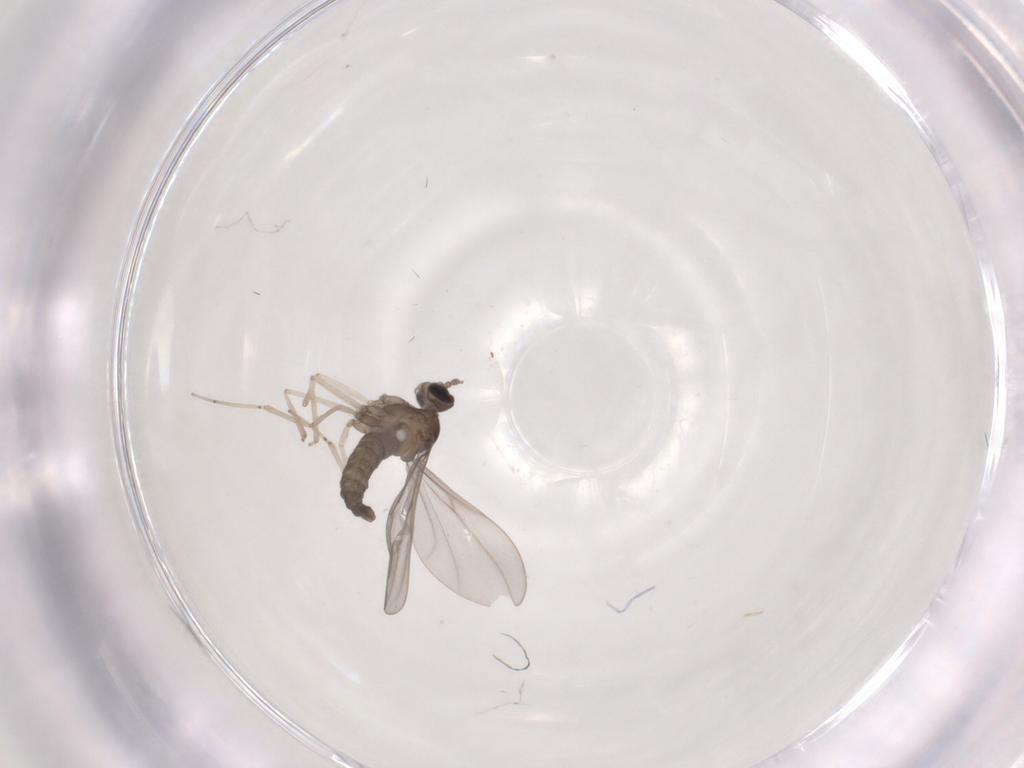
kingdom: Animalia
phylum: Arthropoda
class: Insecta
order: Diptera
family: Cecidomyiidae
